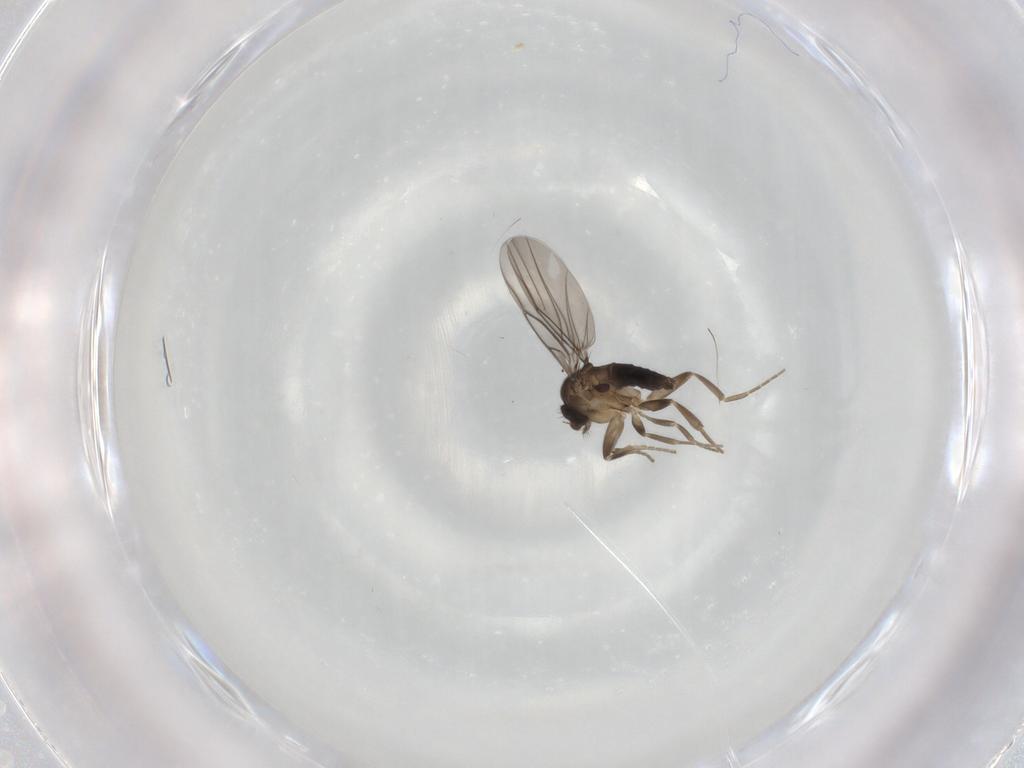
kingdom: Animalia
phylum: Arthropoda
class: Insecta
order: Diptera
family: Phoridae
